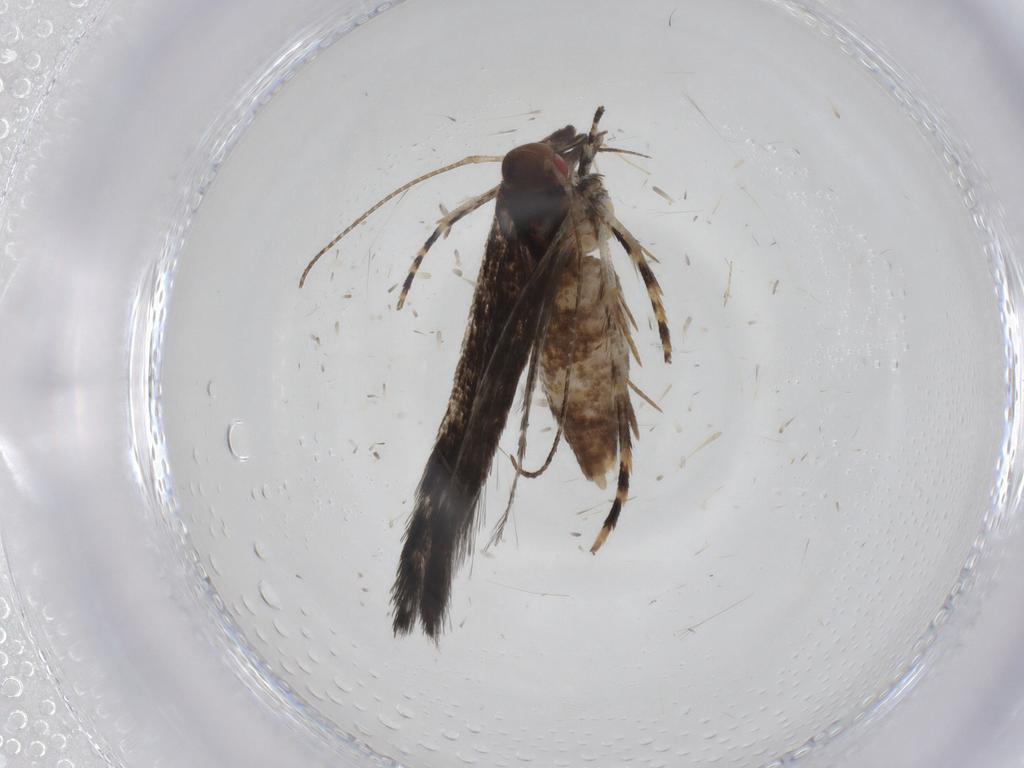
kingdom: Animalia
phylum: Arthropoda
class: Insecta
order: Lepidoptera
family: Cosmopterigidae
